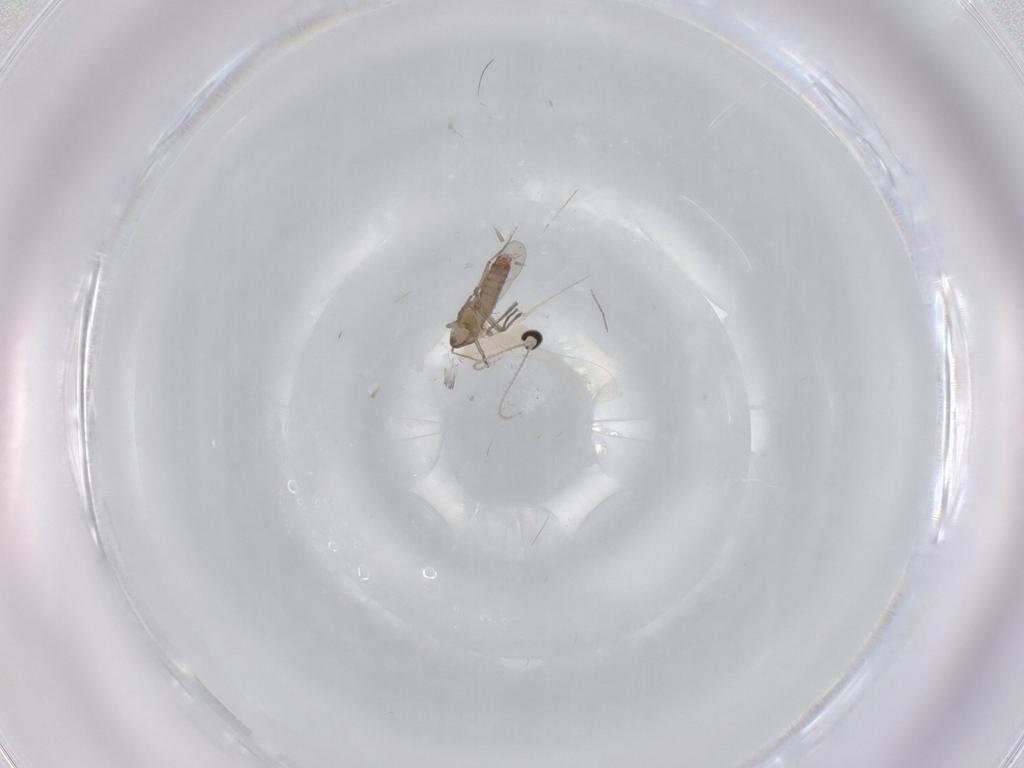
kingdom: Animalia
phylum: Arthropoda
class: Insecta
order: Diptera
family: Chironomidae
